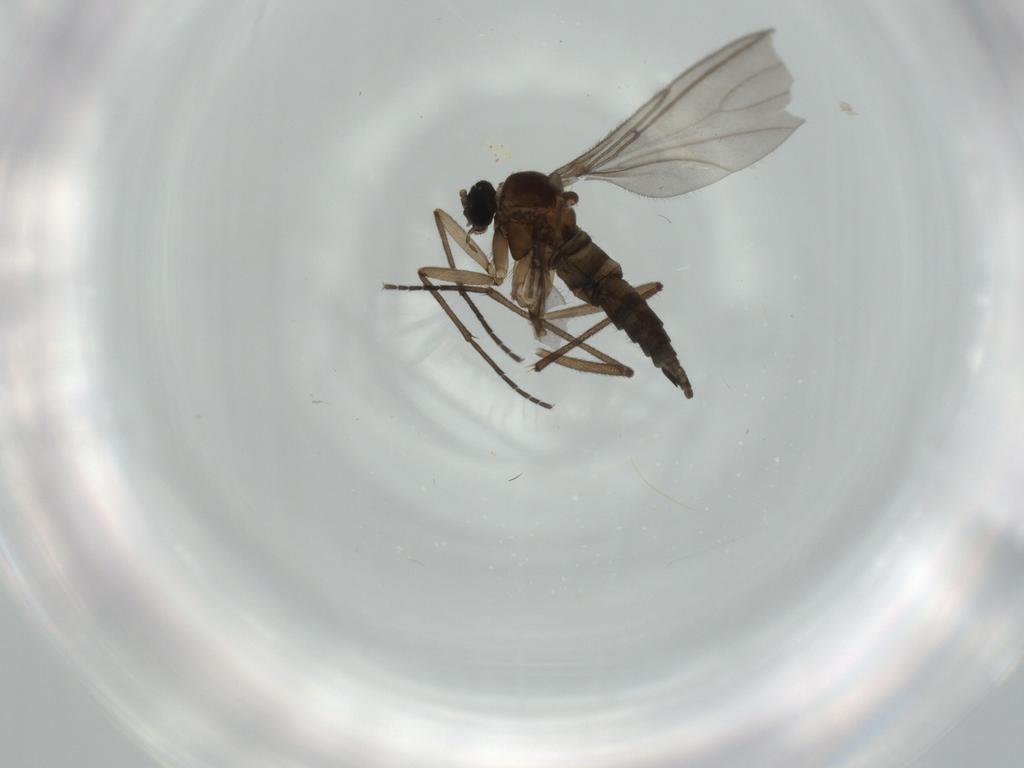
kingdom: Animalia
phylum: Arthropoda
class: Insecta
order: Diptera
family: Sciaridae
